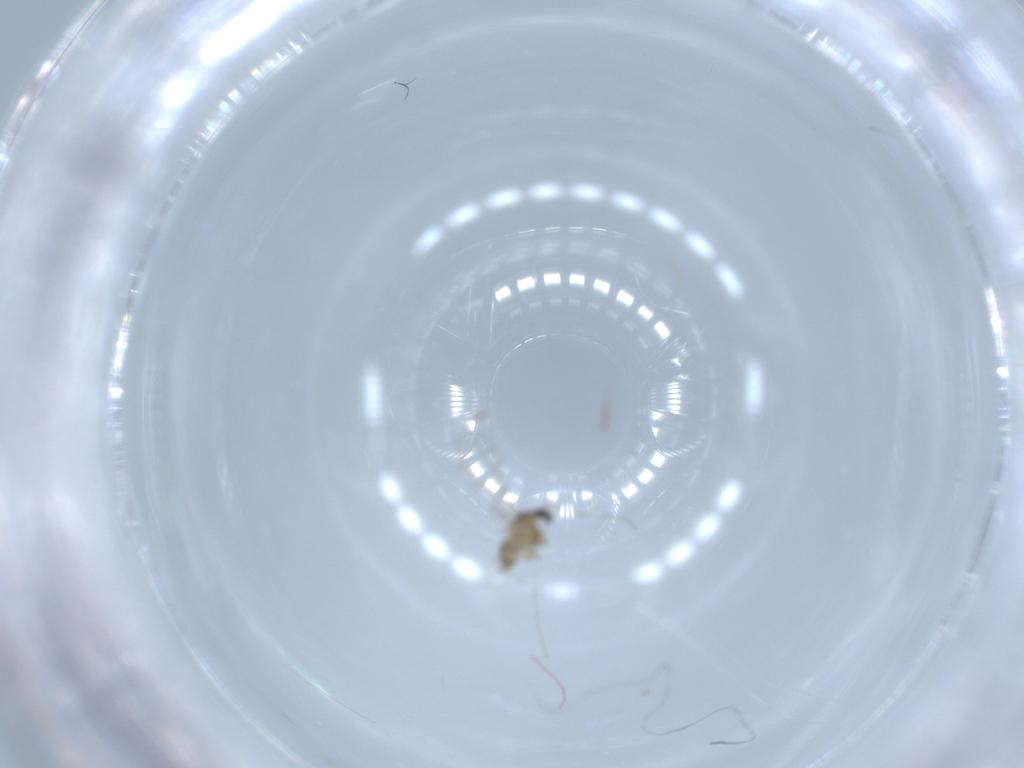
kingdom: Animalia
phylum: Arthropoda
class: Insecta
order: Diptera
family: Cecidomyiidae
